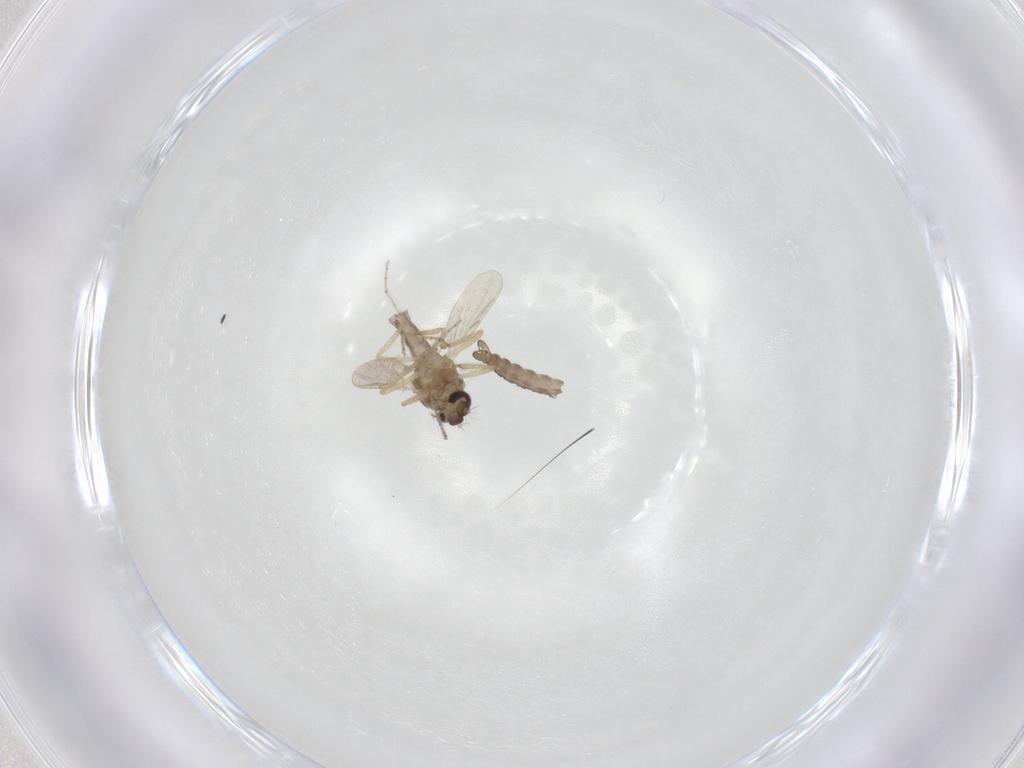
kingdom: Animalia
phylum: Arthropoda
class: Insecta
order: Diptera
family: Ceratopogonidae
